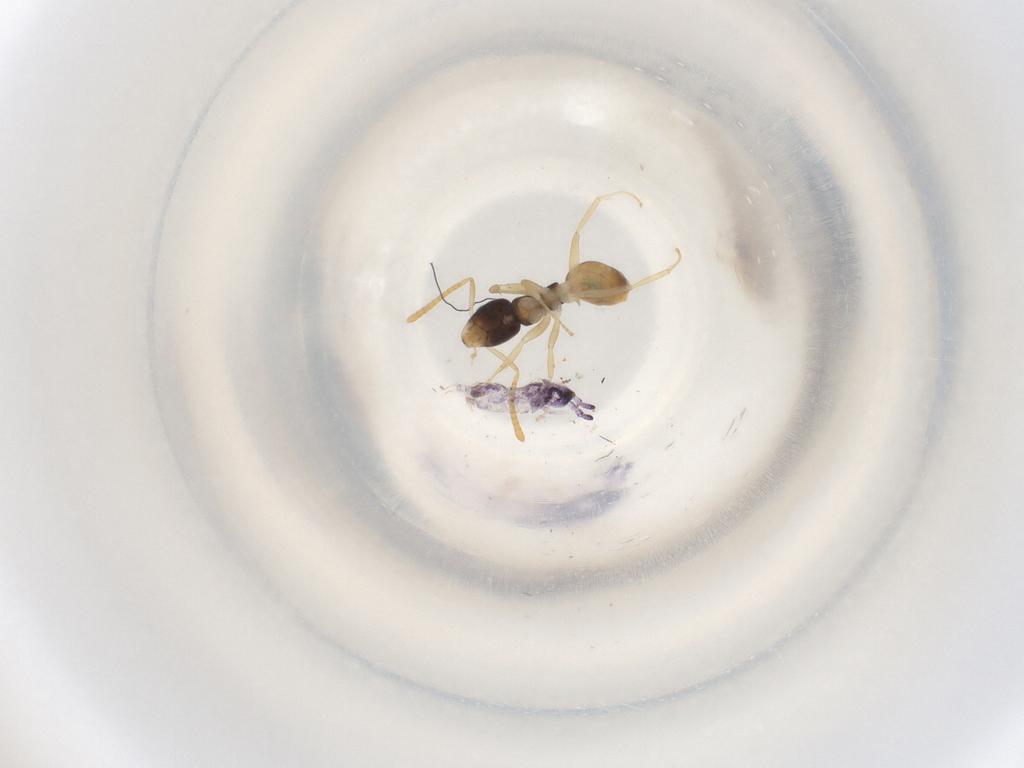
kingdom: Animalia
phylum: Arthropoda
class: Insecta
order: Hymenoptera
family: Formicidae
